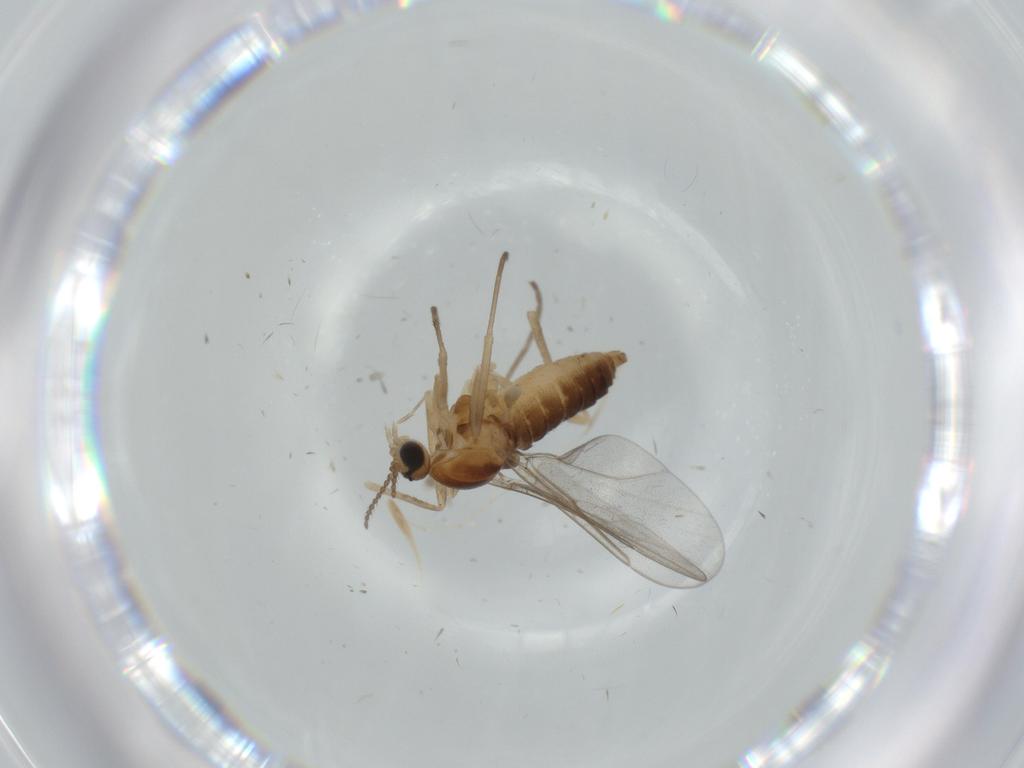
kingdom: Animalia
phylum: Arthropoda
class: Insecta
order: Diptera
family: Cecidomyiidae
